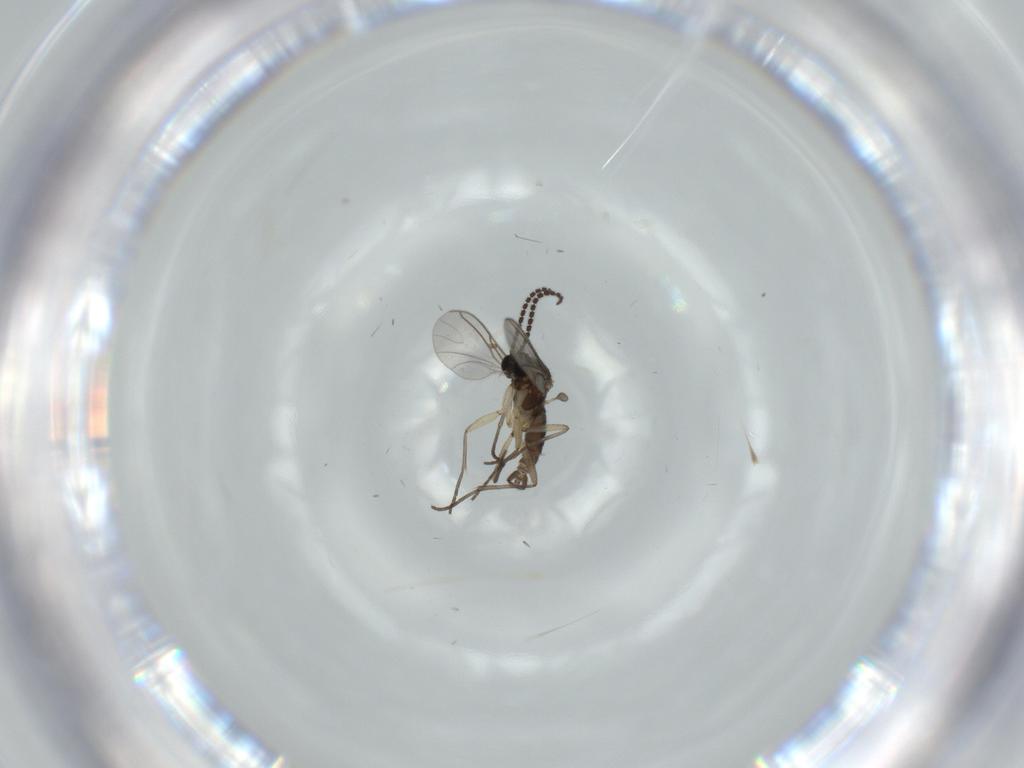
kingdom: Animalia
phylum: Arthropoda
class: Insecta
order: Diptera
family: Sciaridae
